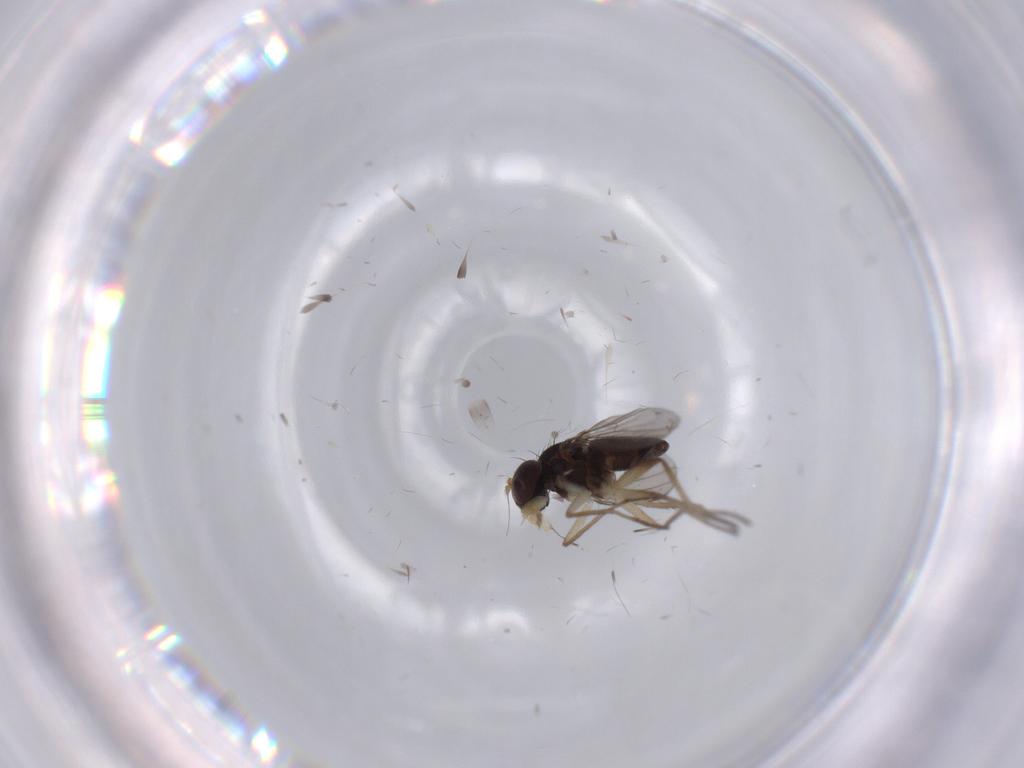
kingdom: Animalia
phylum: Arthropoda
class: Insecta
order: Diptera
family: Dolichopodidae
